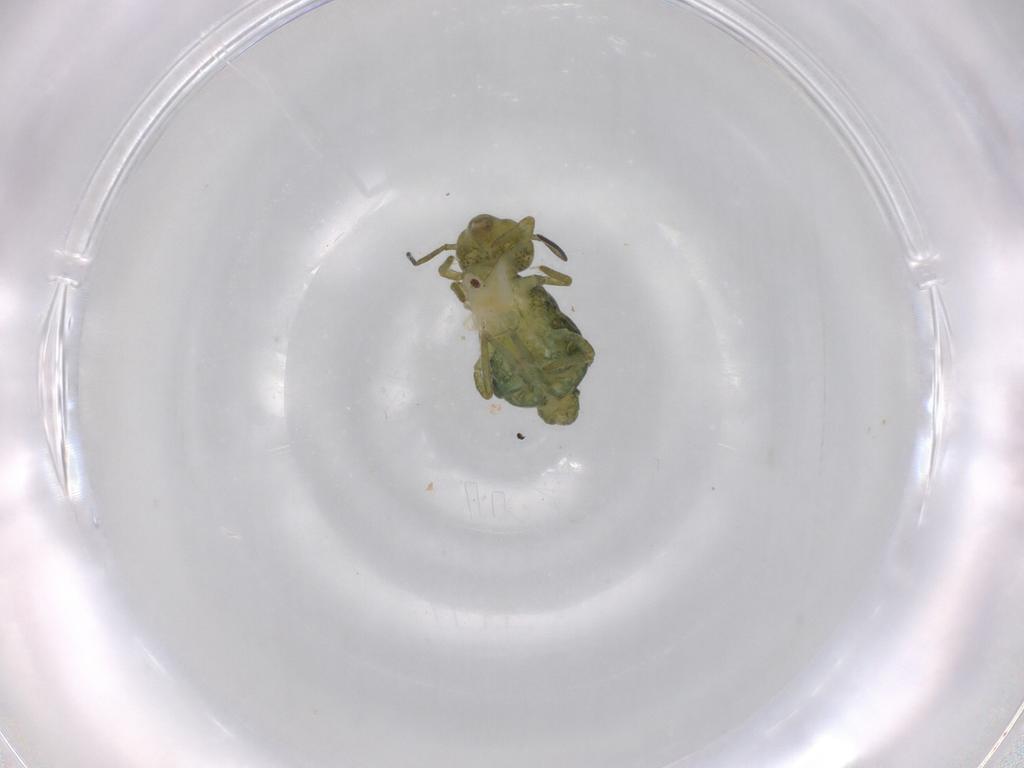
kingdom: Animalia
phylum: Arthropoda
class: Collembola
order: Symphypleona
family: Sminthuridae
